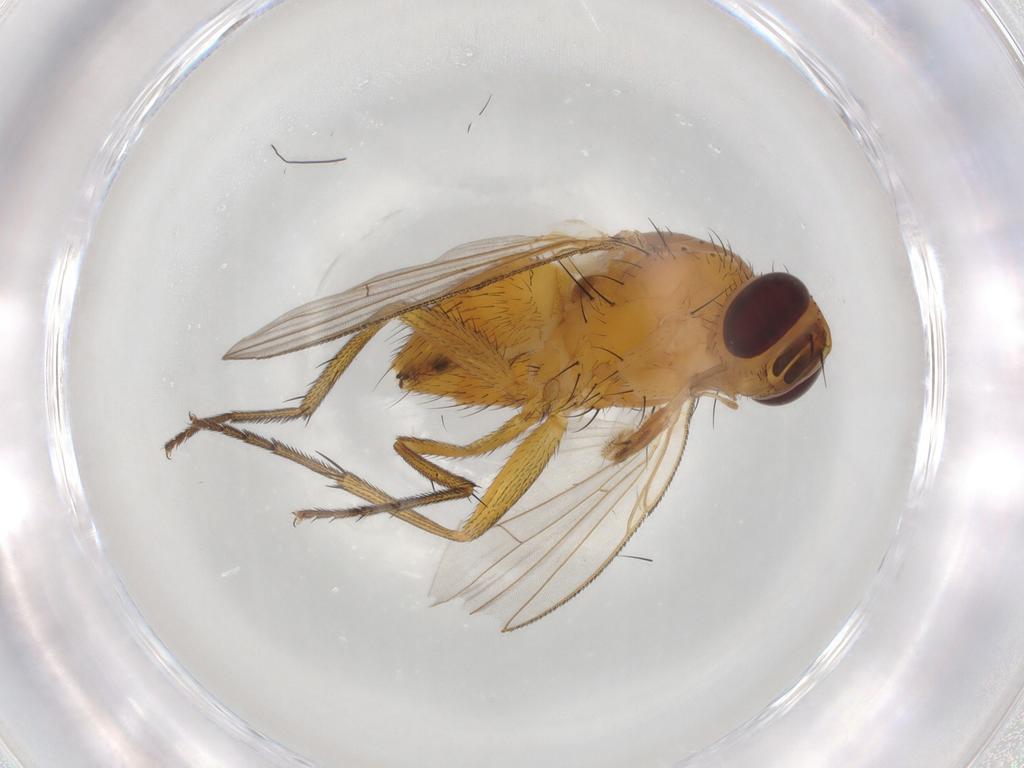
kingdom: Animalia
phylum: Arthropoda
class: Insecta
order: Diptera
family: Muscidae
